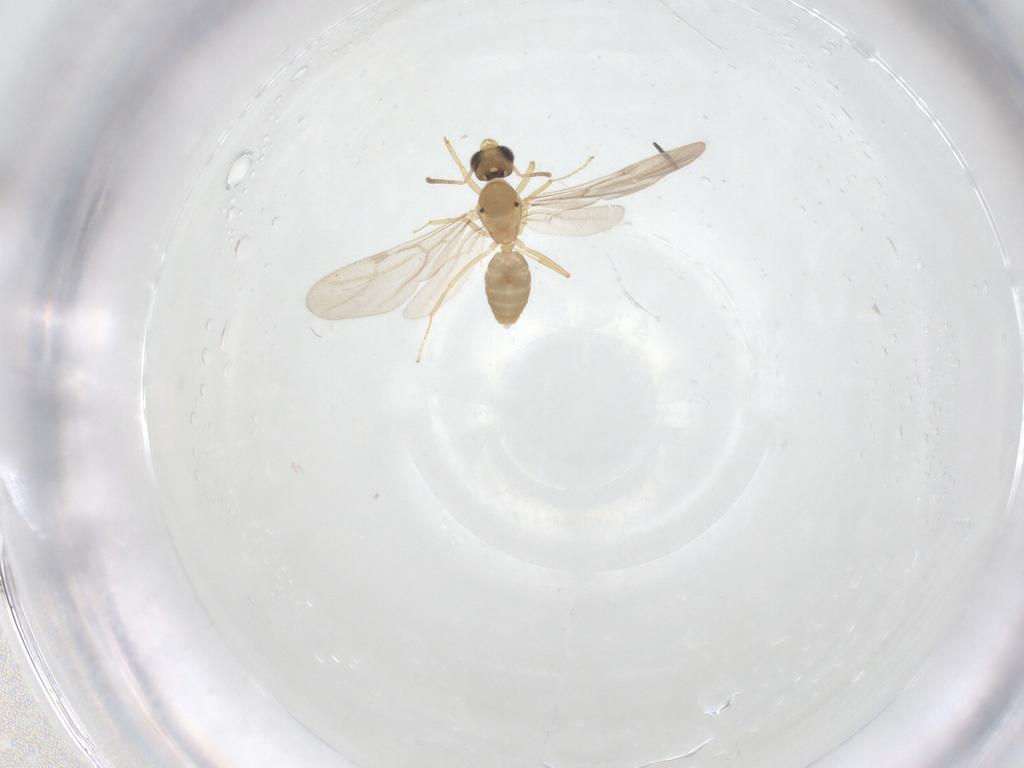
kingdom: Animalia
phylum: Arthropoda
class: Insecta
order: Hymenoptera
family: Formicidae
